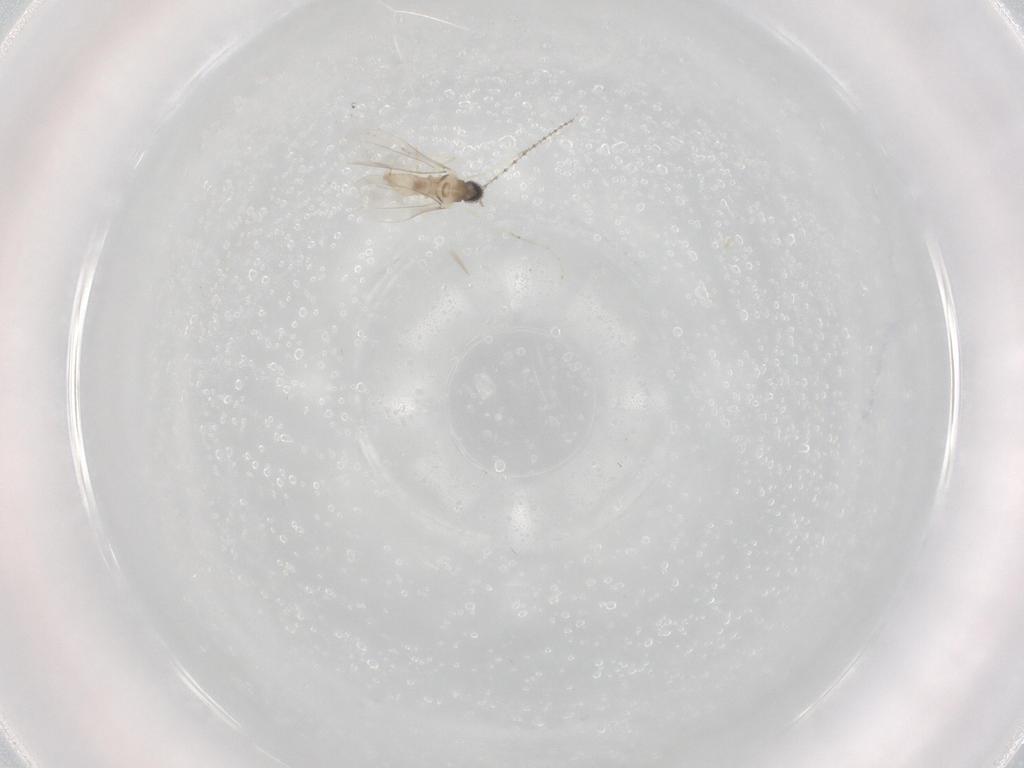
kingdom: Animalia
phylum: Arthropoda
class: Insecta
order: Diptera
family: Cecidomyiidae
